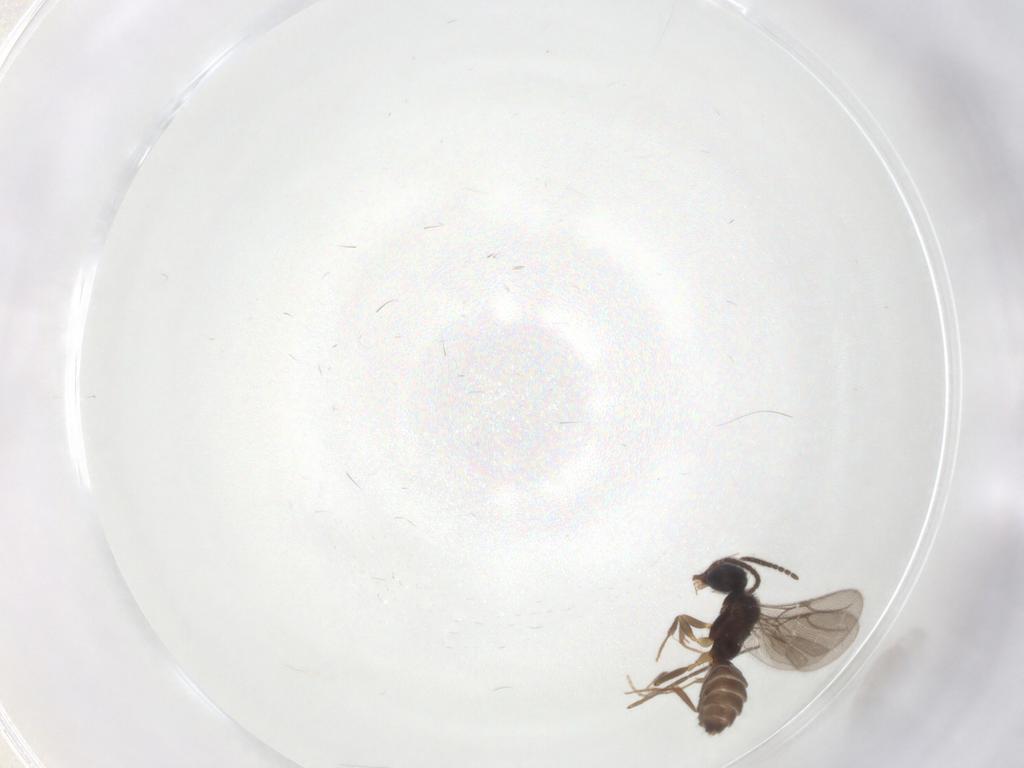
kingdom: Animalia
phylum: Arthropoda
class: Insecta
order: Hymenoptera
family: Bethylidae
